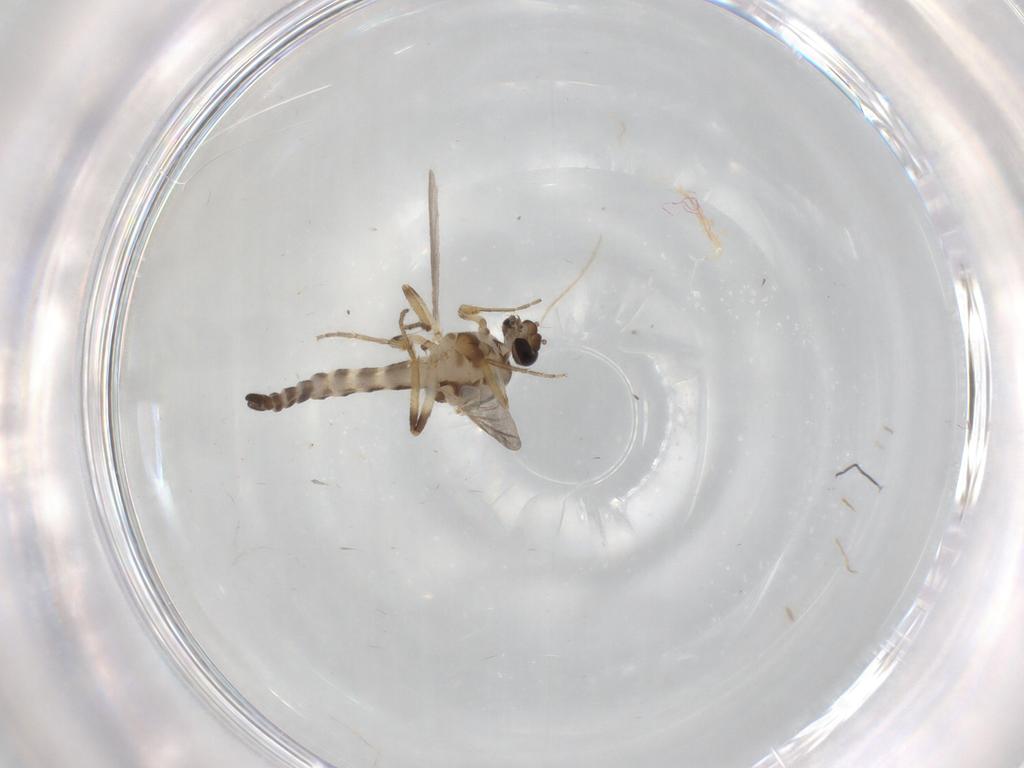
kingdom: Animalia
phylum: Arthropoda
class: Insecta
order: Diptera
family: Ceratopogonidae
